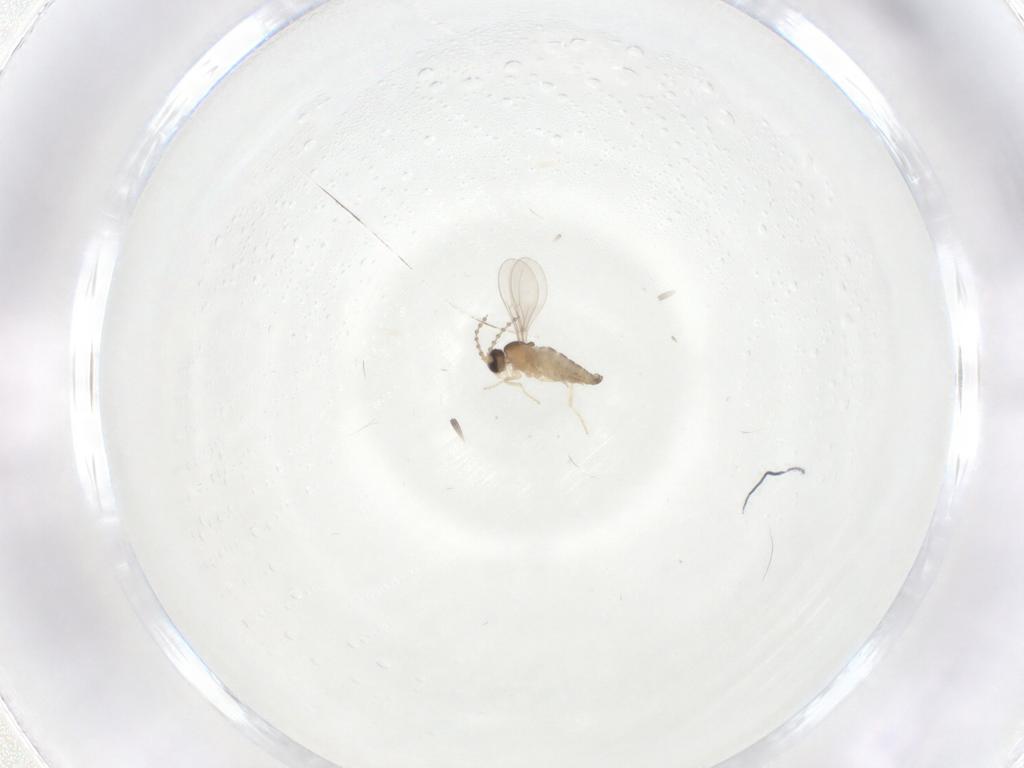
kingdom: Animalia
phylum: Arthropoda
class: Insecta
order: Diptera
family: Cecidomyiidae
